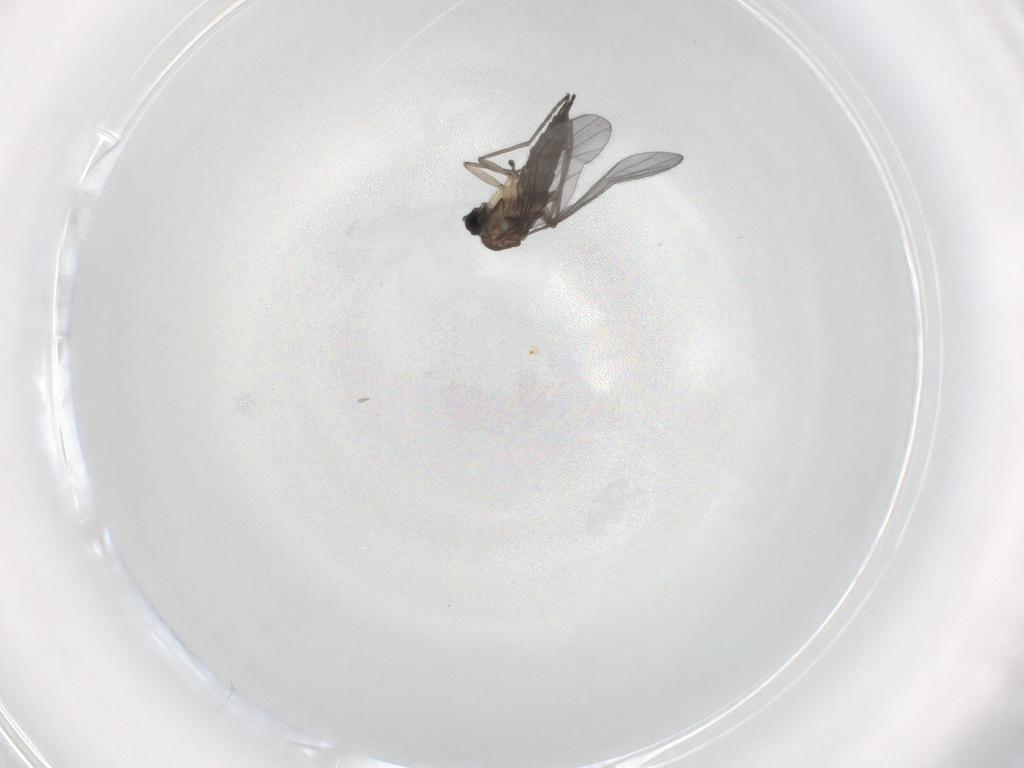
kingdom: Animalia
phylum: Arthropoda
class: Insecta
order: Diptera
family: Sciaridae
